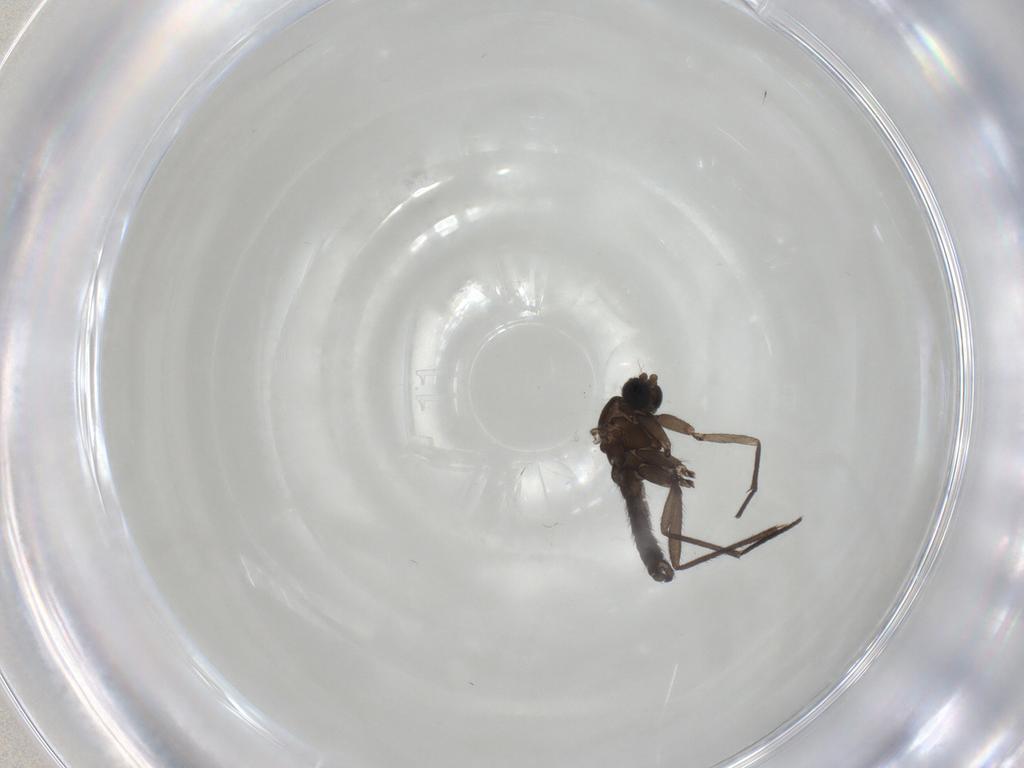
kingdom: Animalia
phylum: Arthropoda
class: Insecta
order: Diptera
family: Sciaridae
